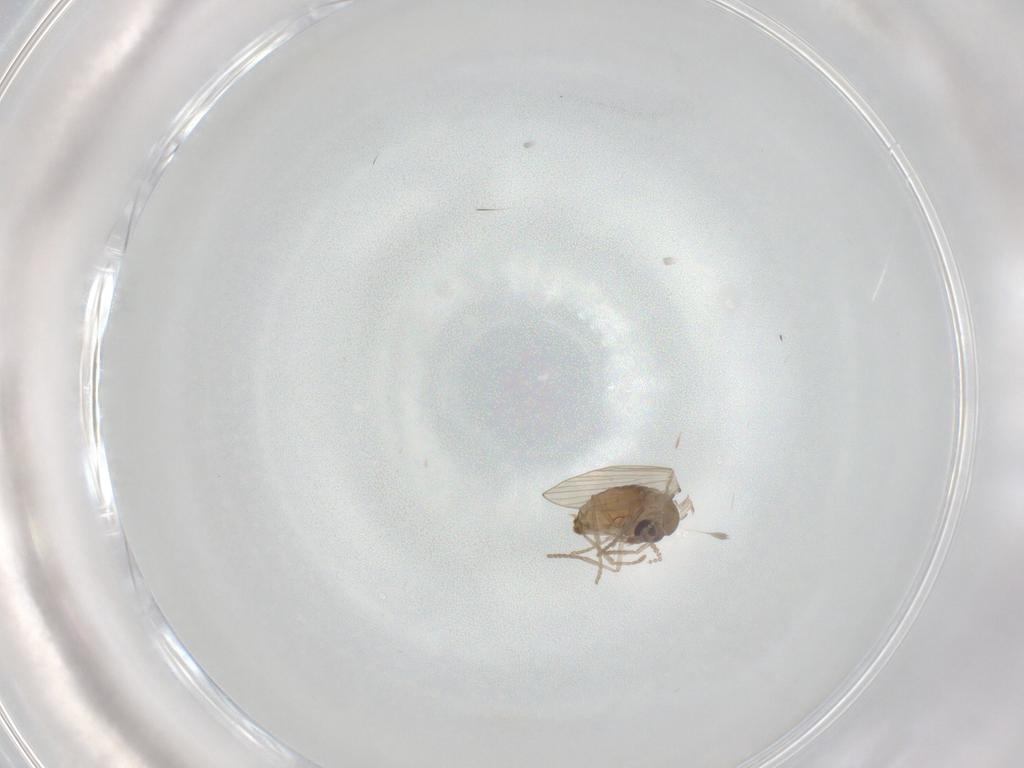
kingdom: Animalia
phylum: Arthropoda
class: Insecta
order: Diptera
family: Psychodidae
